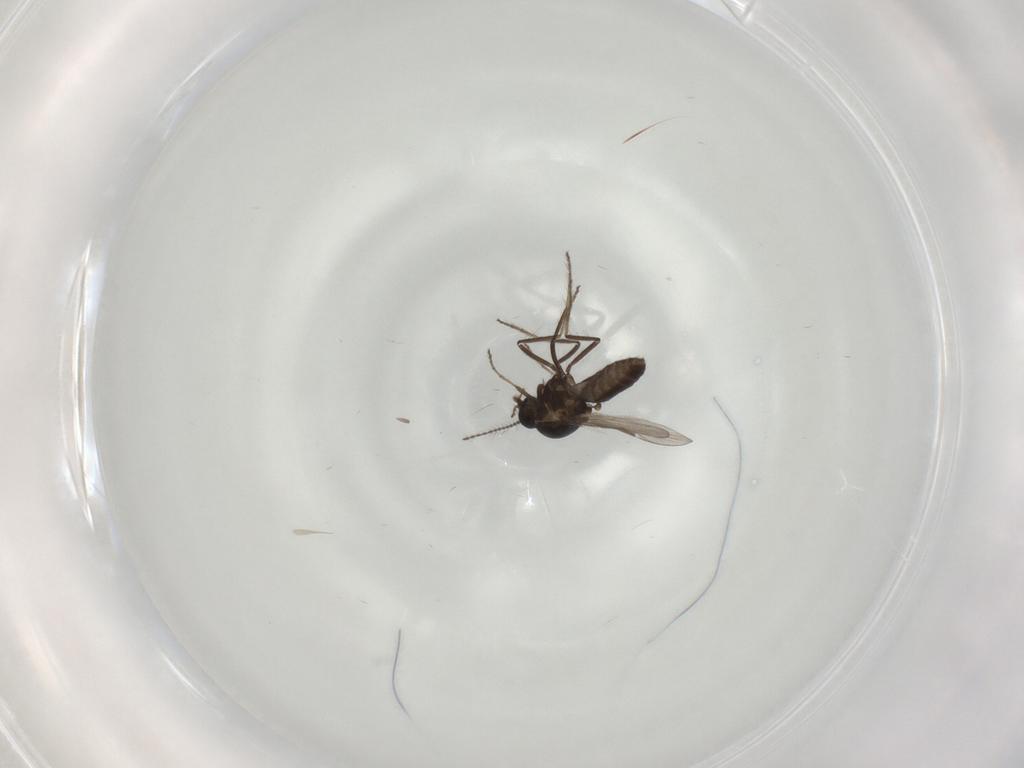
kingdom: Animalia
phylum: Arthropoda
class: Insecta
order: Diptera
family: Ceratopogonidae
